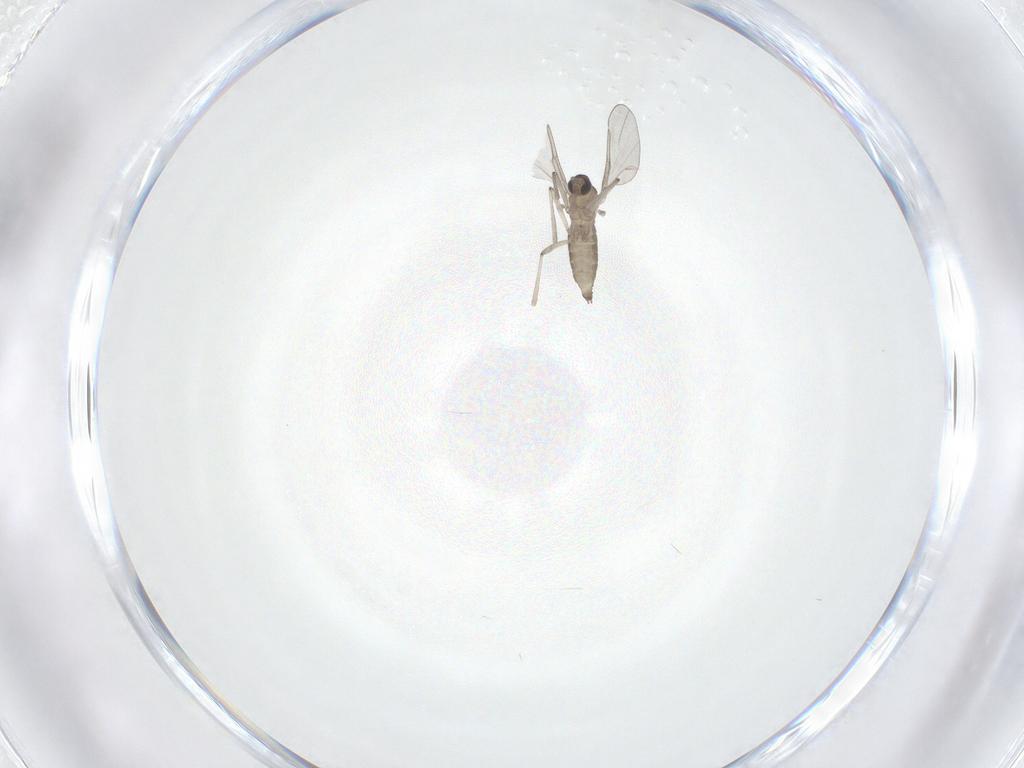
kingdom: Animalia
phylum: Arthropoda
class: Insecta
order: Diptera
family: Cecidomyiidae
